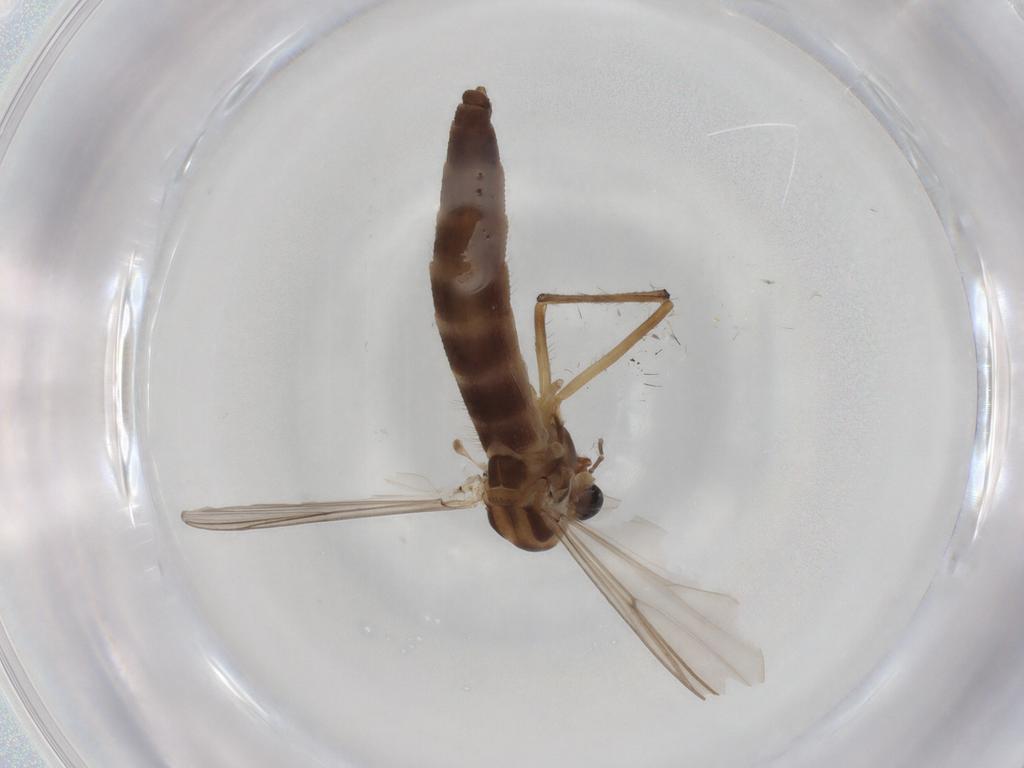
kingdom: Animalia
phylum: Arthropoda
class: Insecta
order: Diptera
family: Chironomidae
